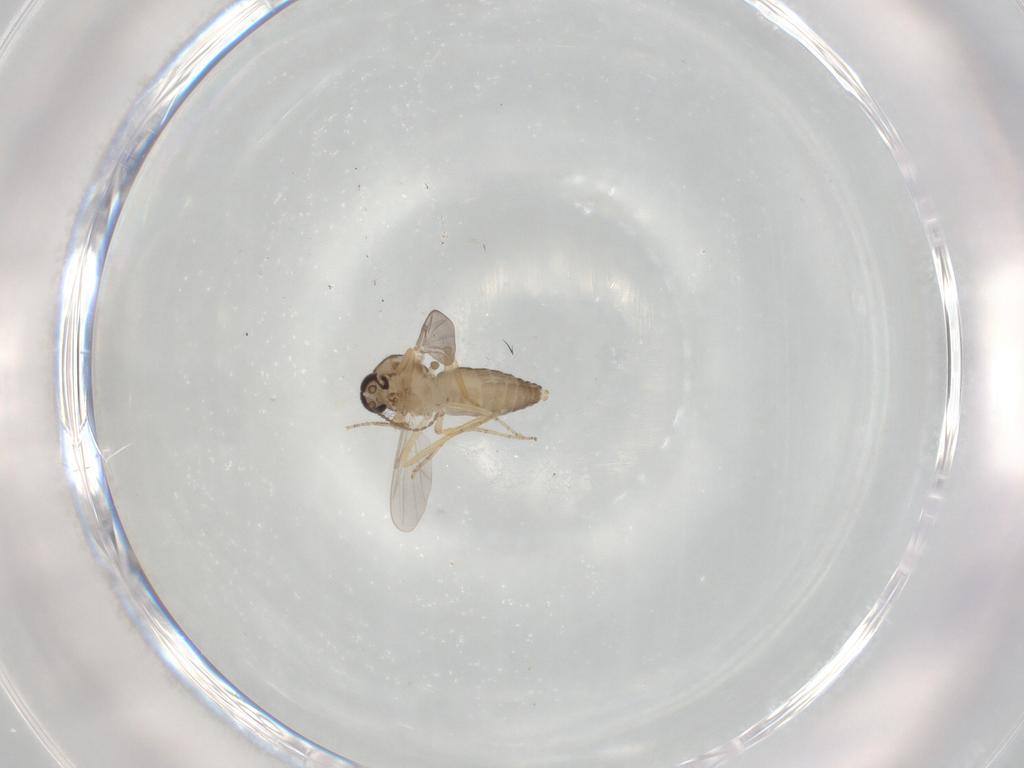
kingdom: Animalia
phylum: Arthropoda
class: Insecta
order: Diptera
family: Ceratopogonidae
